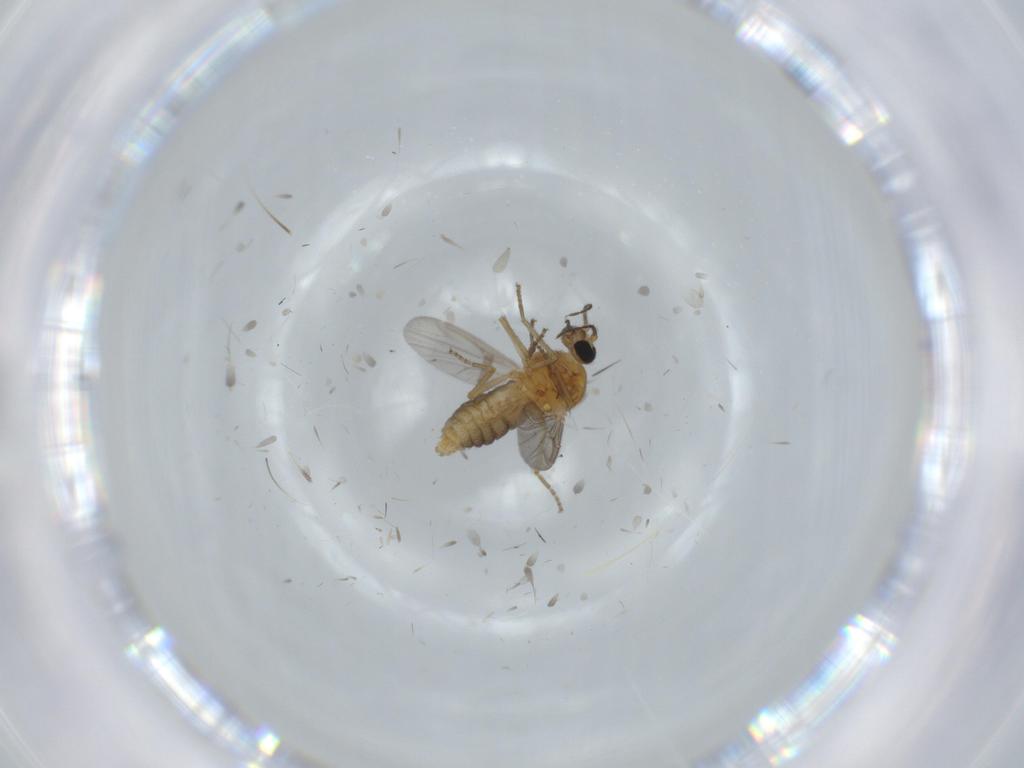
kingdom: Animalia
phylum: Arthropoda
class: Insecta
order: Diptera
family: Ceratopogonidae
